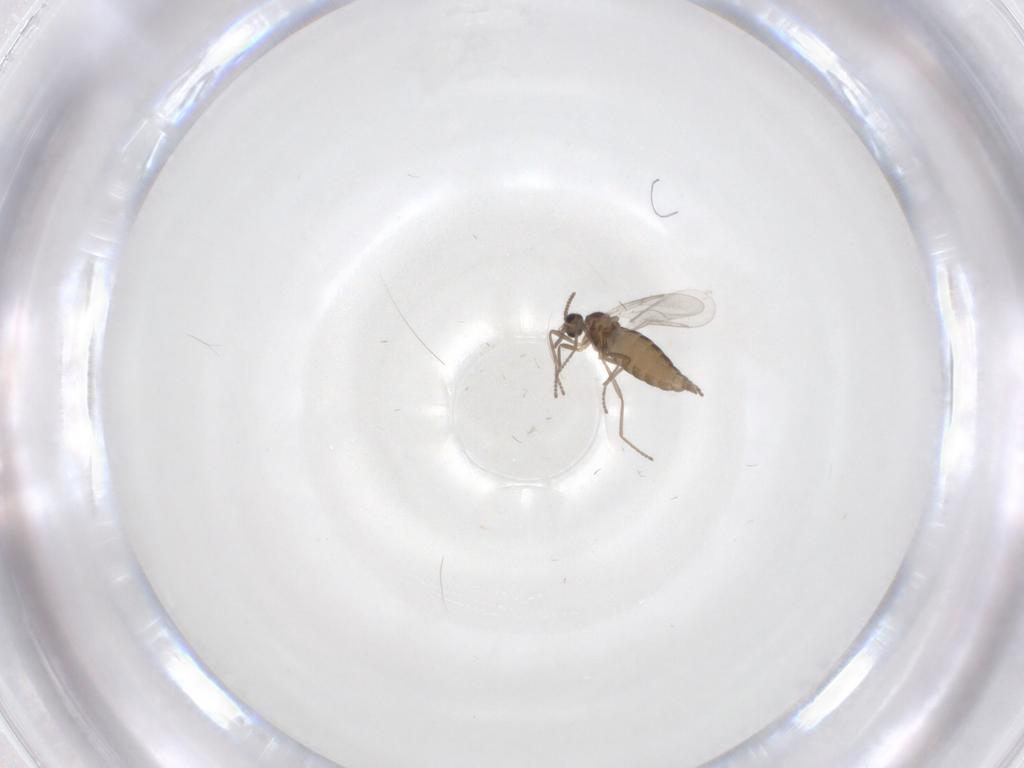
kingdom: Animalia
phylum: Arthropoda
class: Insecta
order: Diptera
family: Cecidomyiidae
